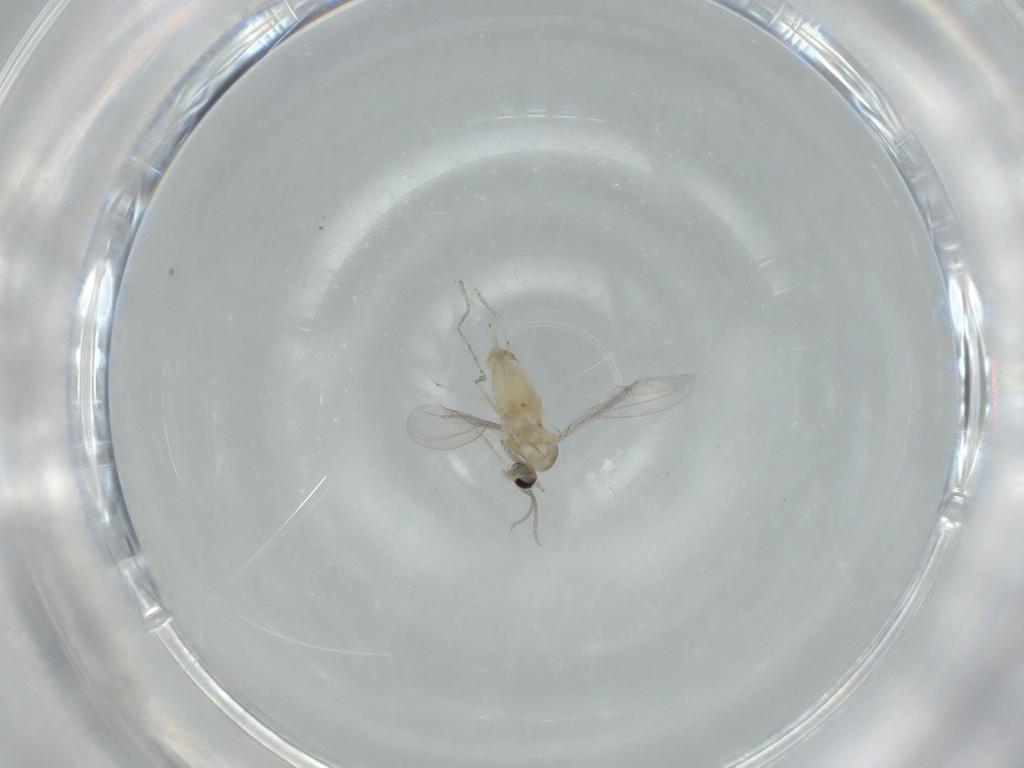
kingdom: Animalia
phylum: Arthropoda
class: Insecta
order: Diptera
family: Cecidomyiidae
